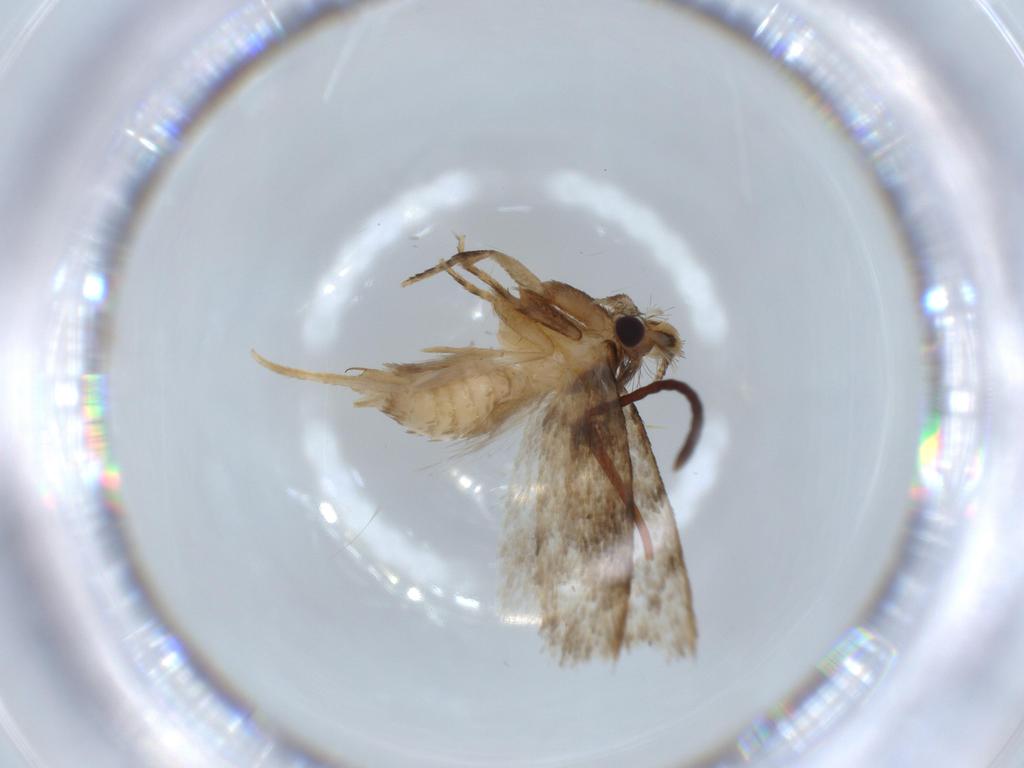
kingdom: Animalia
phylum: Arthropoda
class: Insecta
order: Lepidoptera
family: Tineidae
